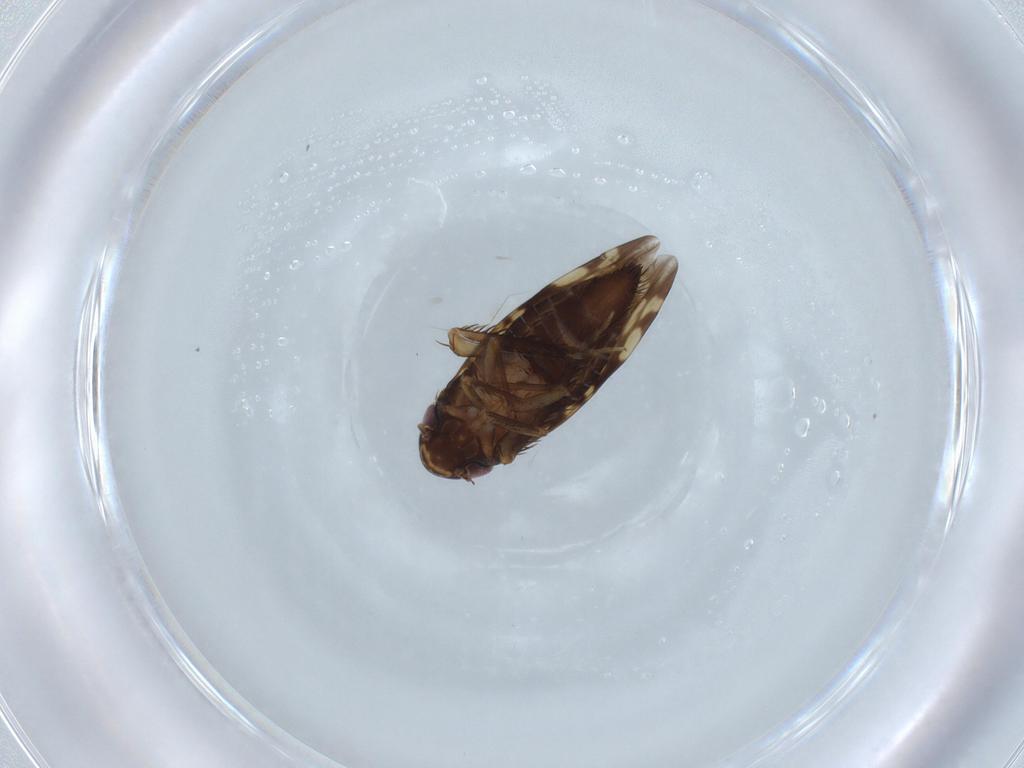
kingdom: Animalia
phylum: Arthropoda
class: Insecta
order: Hemiptera
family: Cicadellidae
